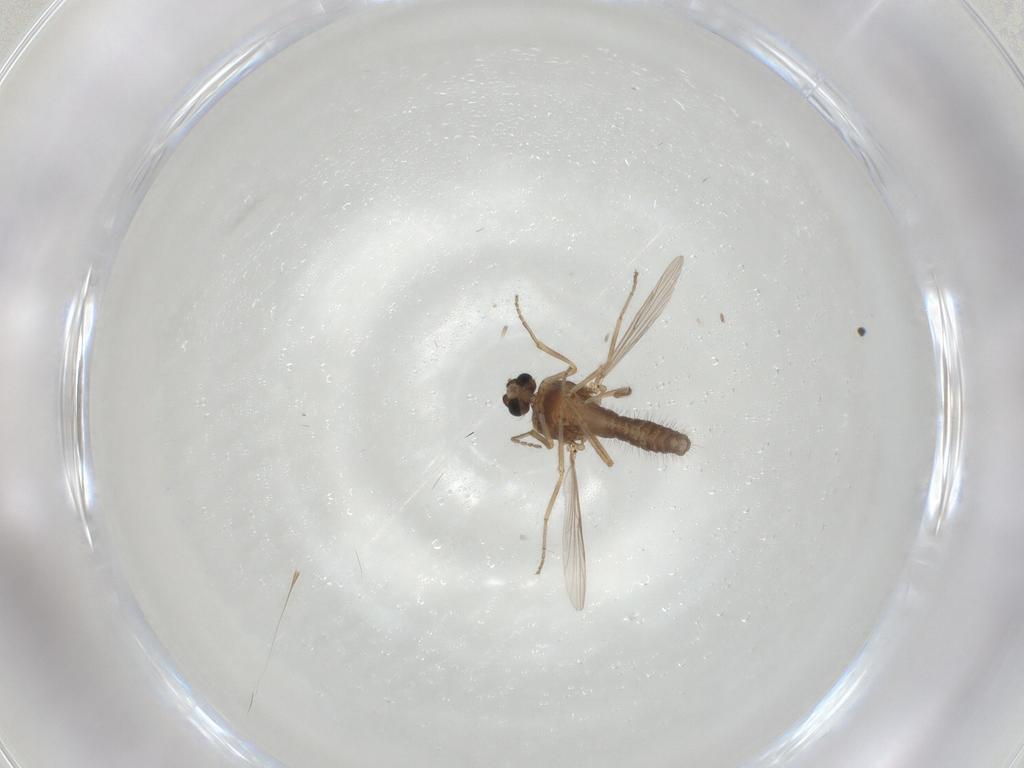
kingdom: Animalia
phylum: Arthropoda
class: Insecta
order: Diptera
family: Ceratopogonidae
